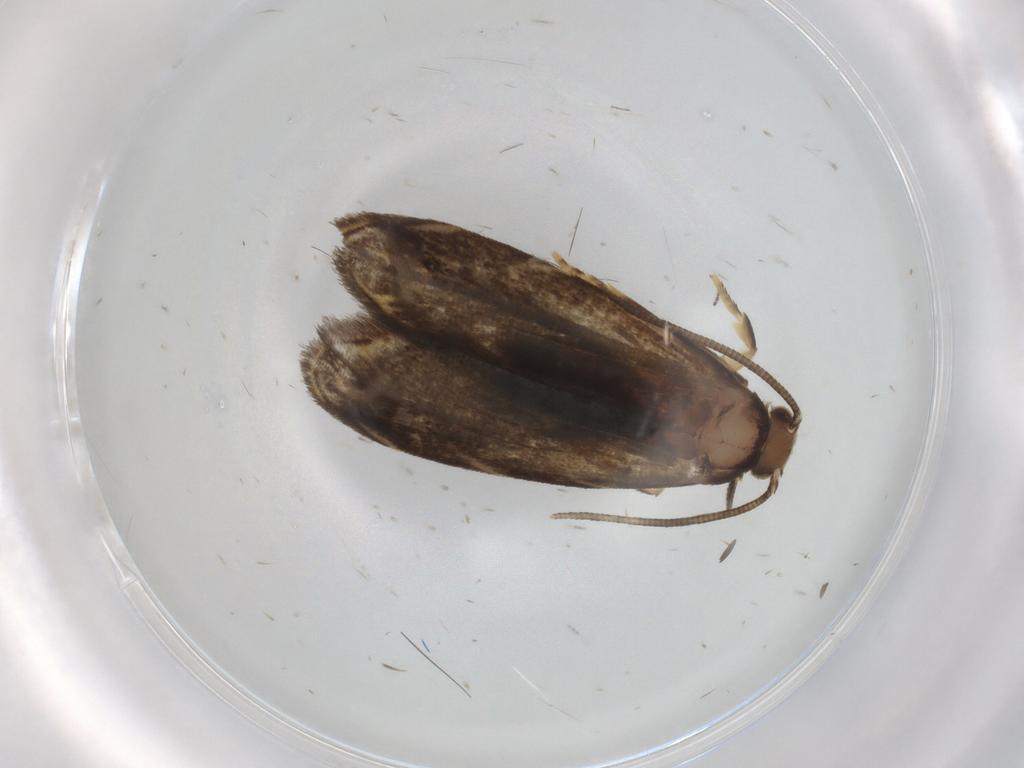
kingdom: Animalia
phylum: Arthropoda
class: Insecta
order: Lepidoptera
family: Dryadaulidae
